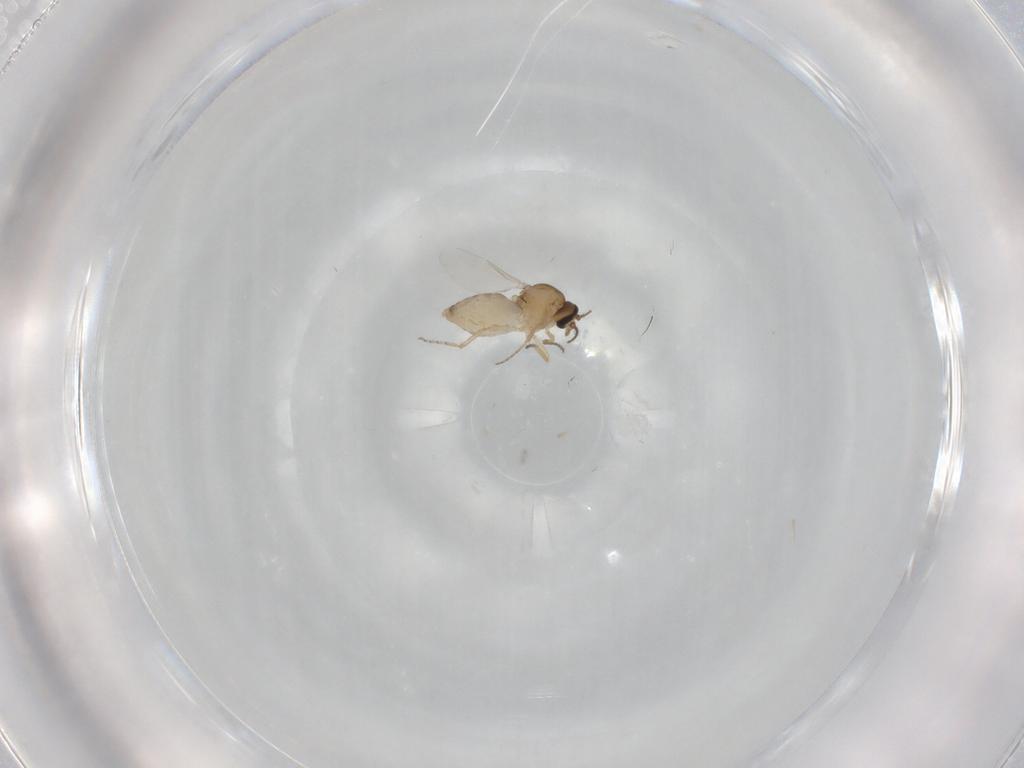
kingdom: Animalia
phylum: Arthropoda
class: Insecta
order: Diptera
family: Ceratopogonidae
